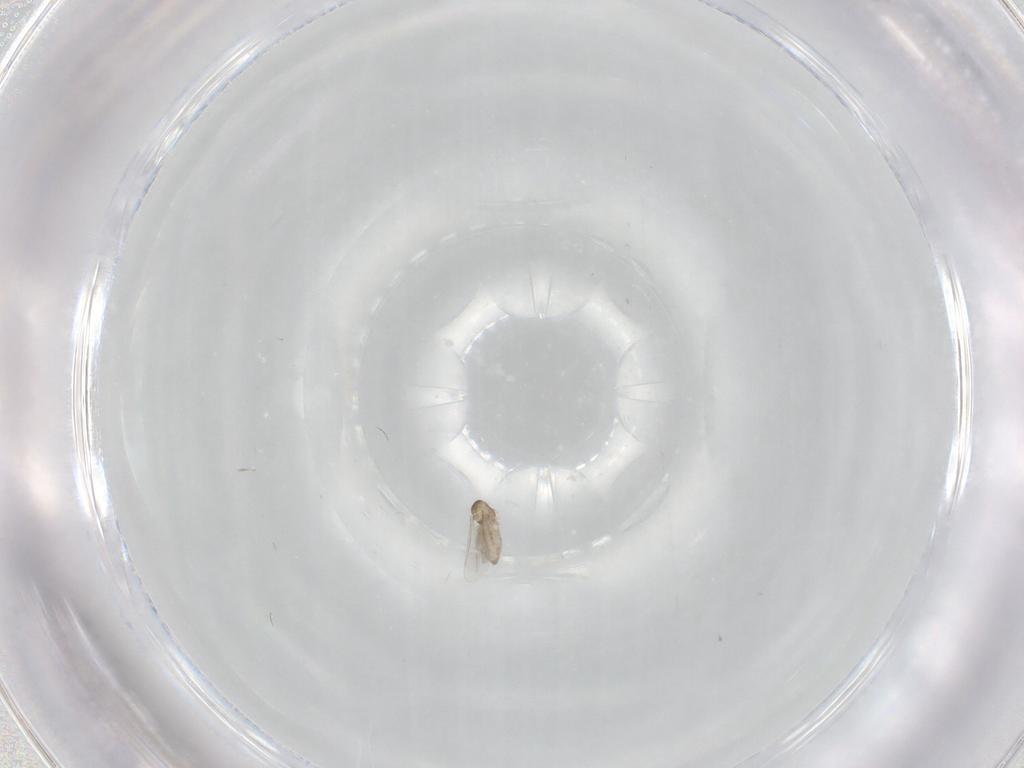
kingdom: Animalia
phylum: Arthropoda
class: Insecta
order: Diptera
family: Cecidomyiidae
